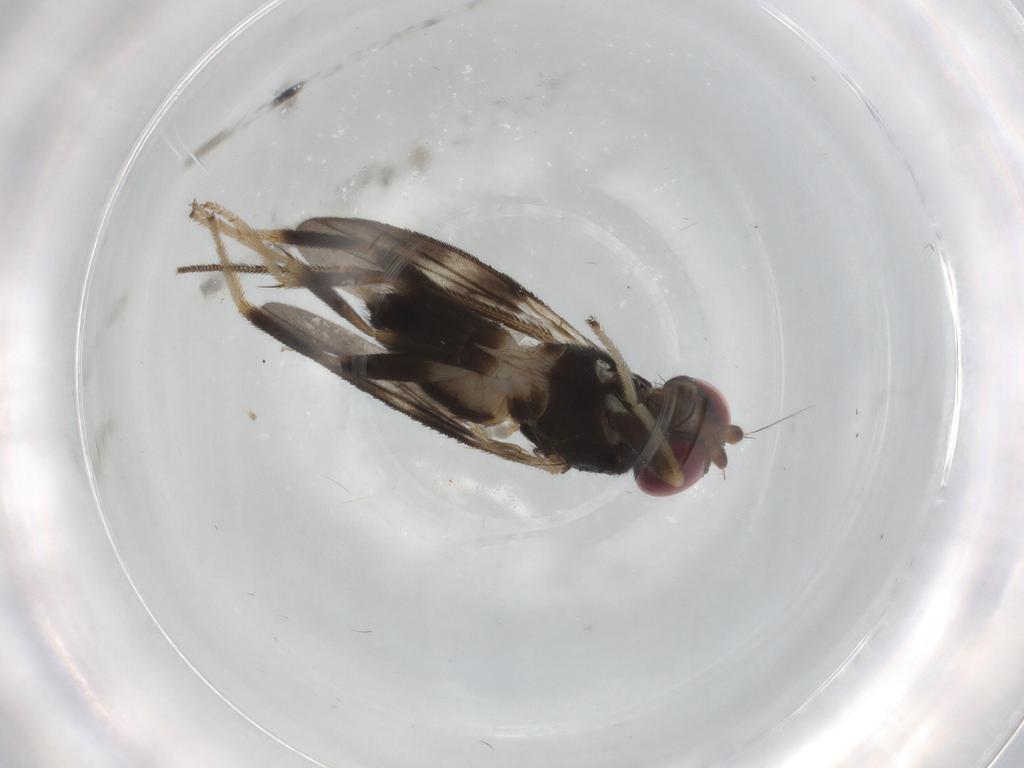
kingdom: Animalia
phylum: Arthropoda
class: Insecta
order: Diptera
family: Clusiidae
